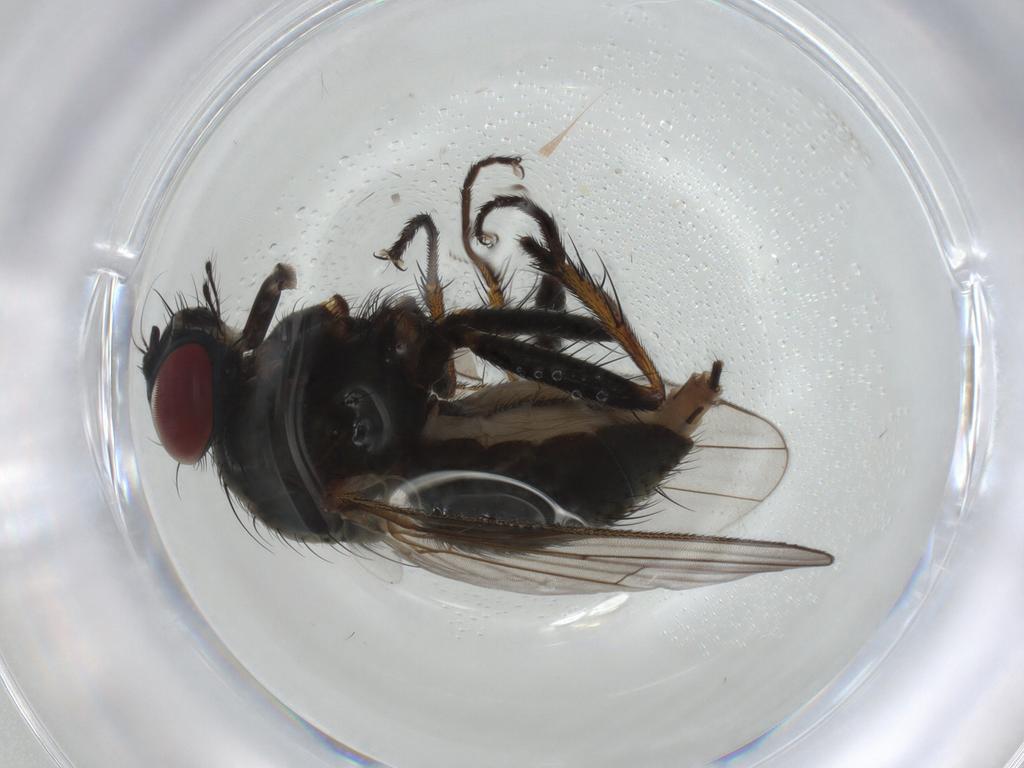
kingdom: Animalia
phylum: Arthropoda
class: Insecta
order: Diptera
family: Muscidae
